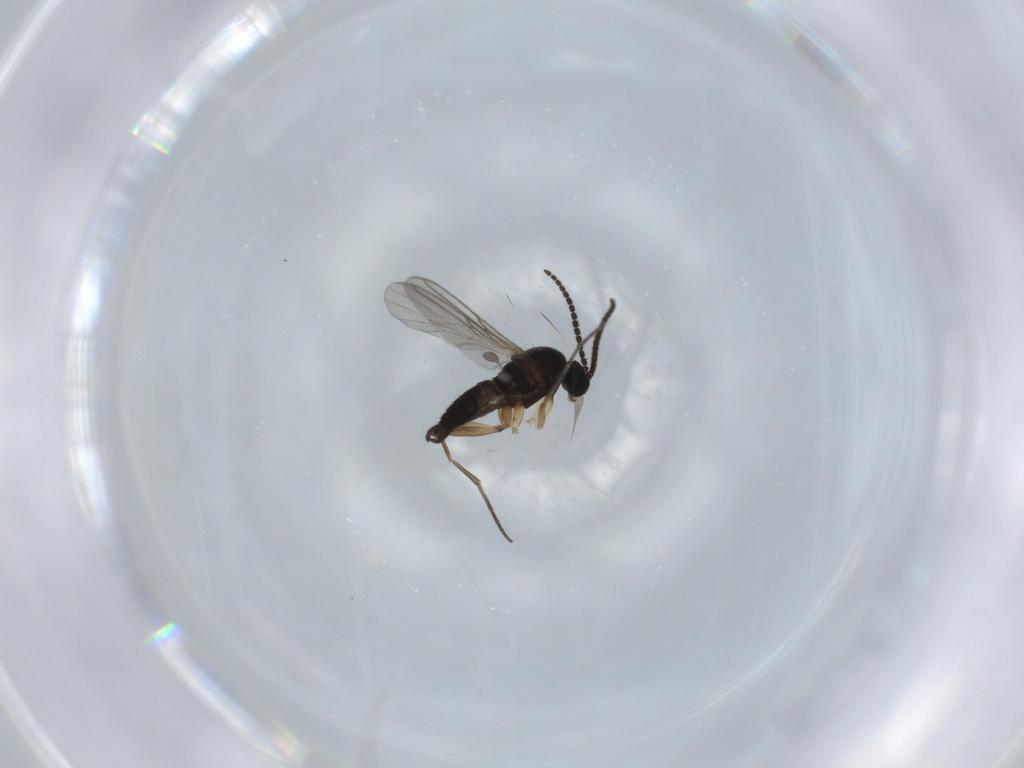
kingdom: Animalia
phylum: Arthropoda
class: Insecta
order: Diptera
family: Sciaridae
